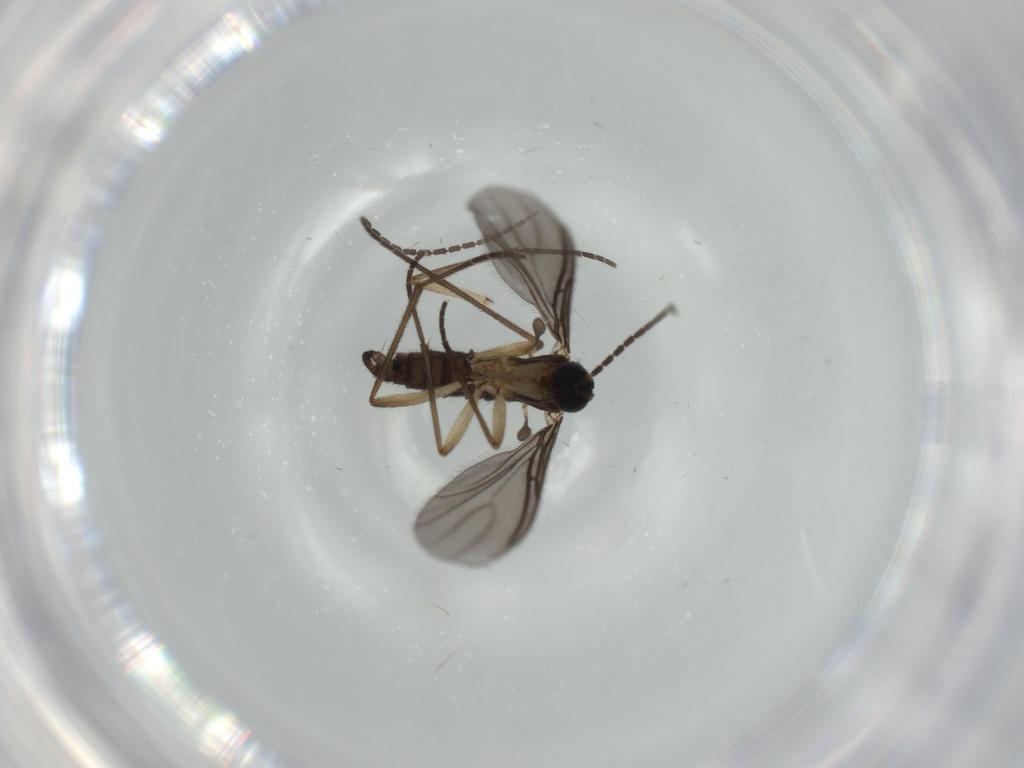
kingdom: Animalia
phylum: Arthropoda
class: Insecta
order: Diptera
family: Sciaridae
